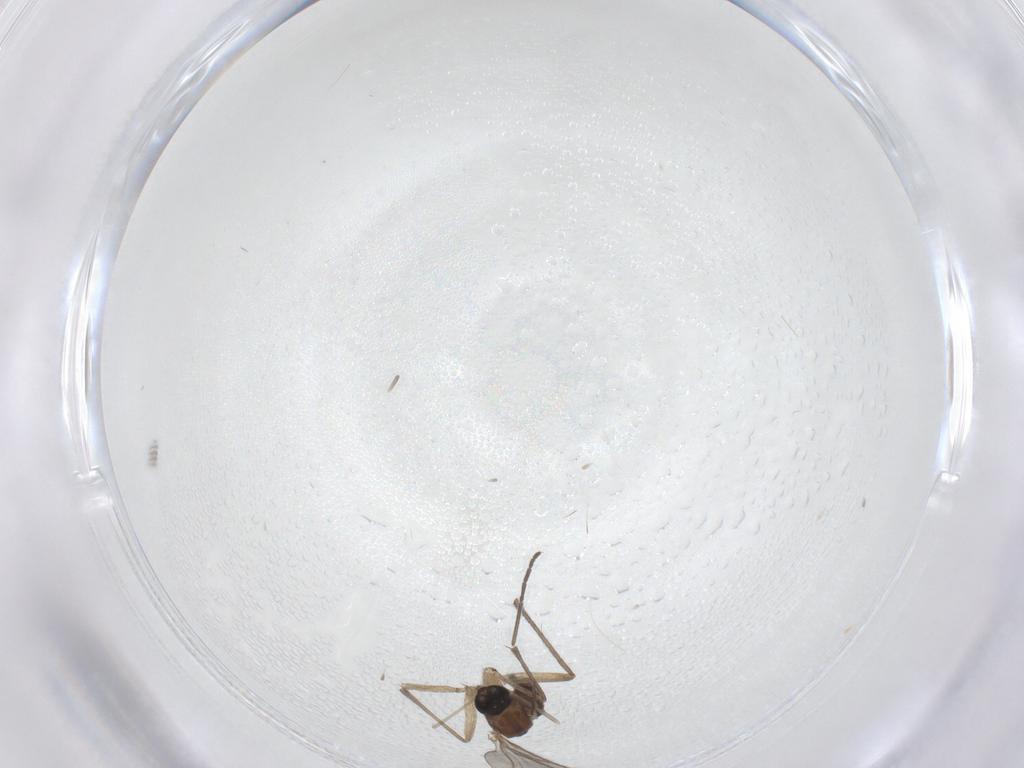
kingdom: Animalia
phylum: Arthropoda
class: Insecta
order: Diptera
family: Sciaridae
